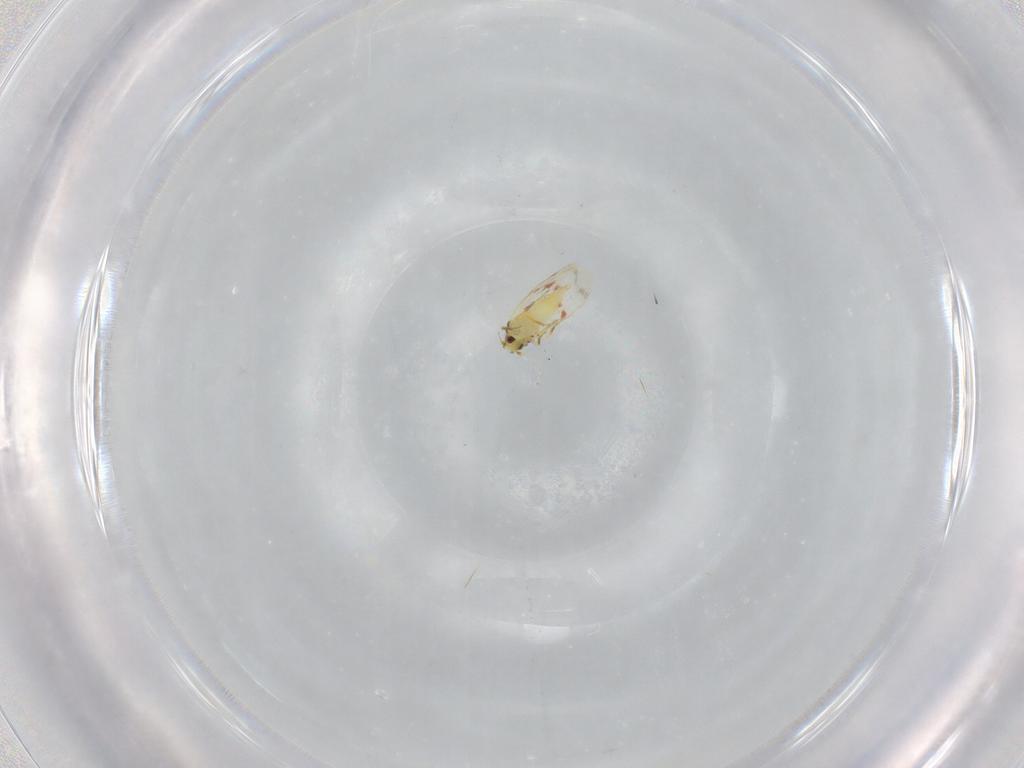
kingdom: Animalia
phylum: Arthropoda
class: Insecta
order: Hemiptera
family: Aleyrodidae
